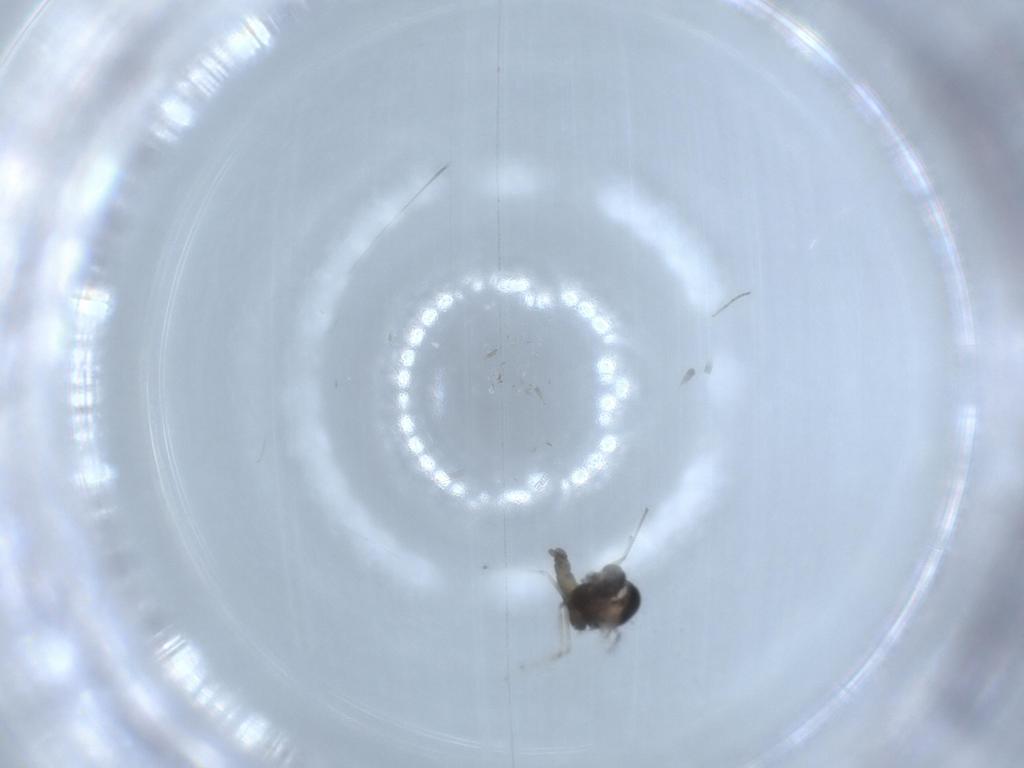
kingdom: Animalia
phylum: Arthropoda
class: Insecta
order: Diptera
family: Chironomidae
